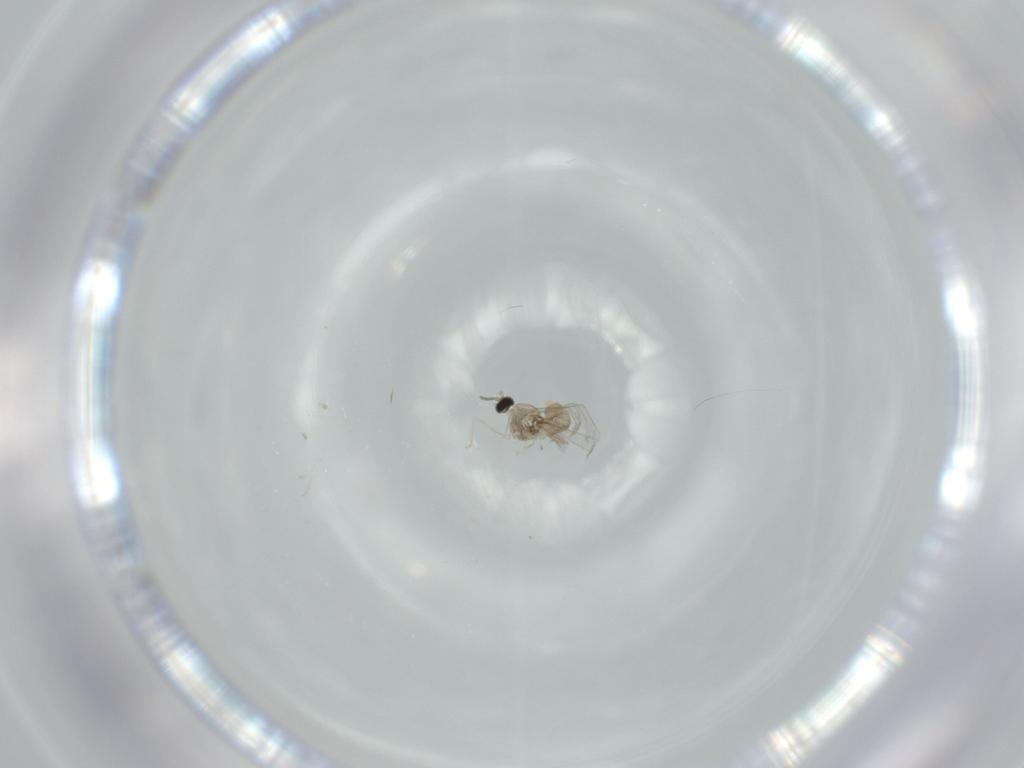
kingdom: Animalia
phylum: Arthropoda
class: Insecta
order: Diptera
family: Cecidomyiidae
